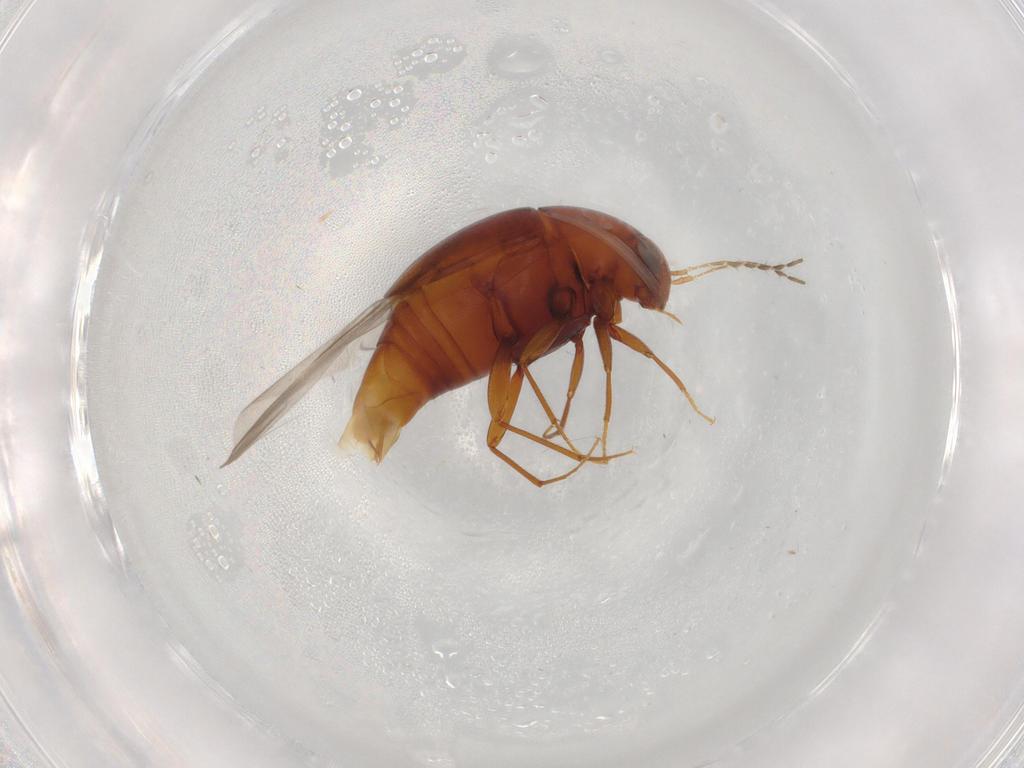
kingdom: Animalia
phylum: Arthropoda
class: Insecta
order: Coleoptera
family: Staphylinidae
